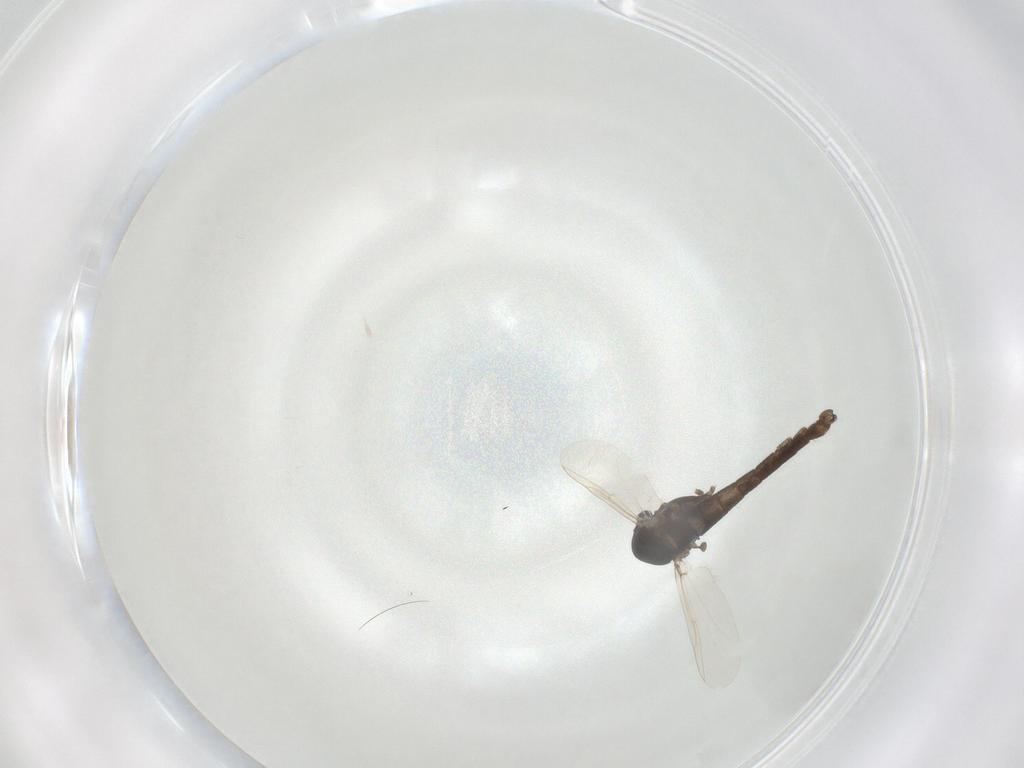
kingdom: Animalia
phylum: Arthropoda
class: Insecta
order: Diptera
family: Chironomidae
